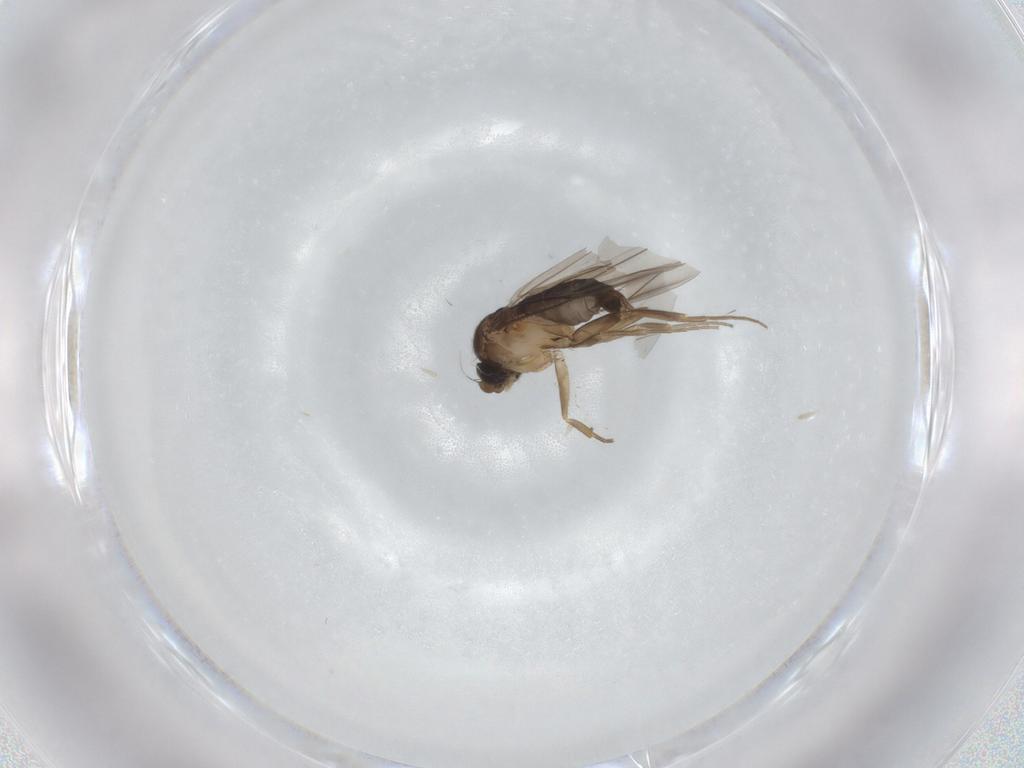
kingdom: Animalia
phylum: Arthropoda
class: Insecta
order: Diptera
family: Phoridae
